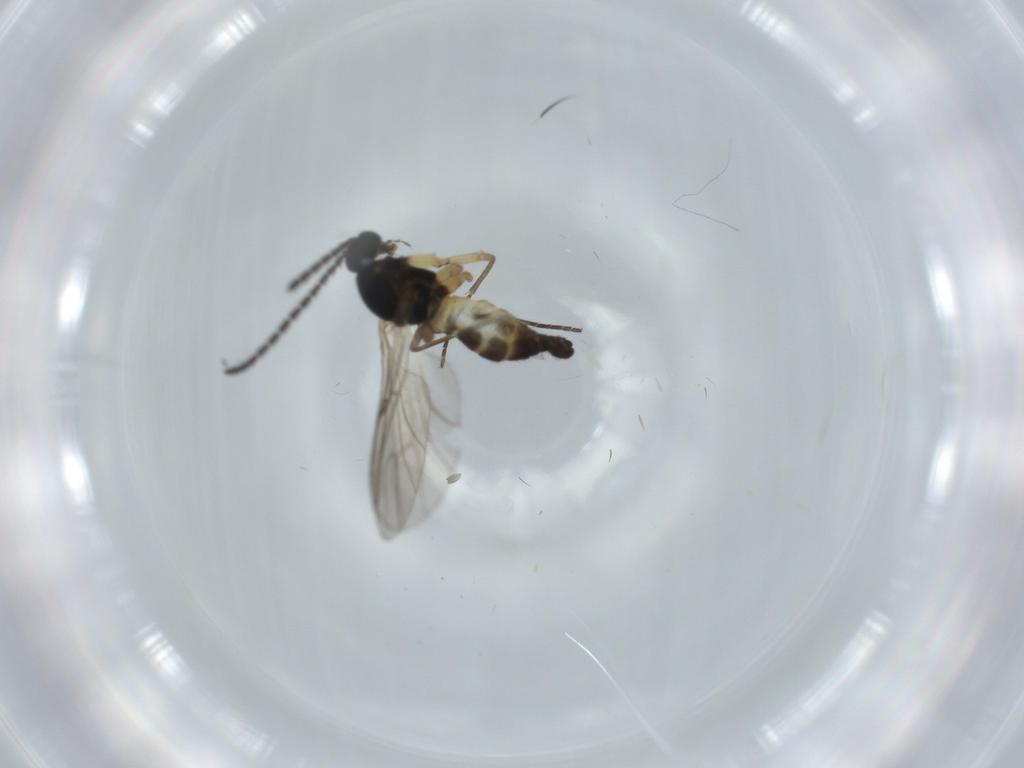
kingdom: Animalia
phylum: Arthropoda
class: Insecta
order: Diptera
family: Sciaridae
